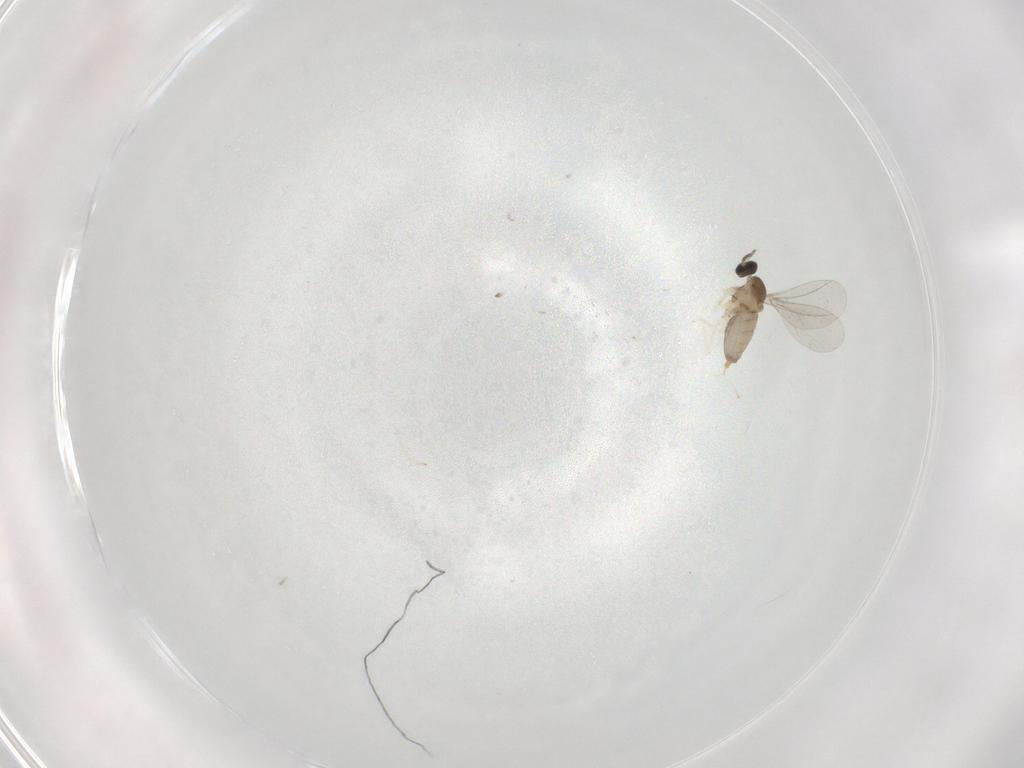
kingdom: Animalia
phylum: Arthropoda
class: Insecta
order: Diptera
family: Cecidomyiidae
